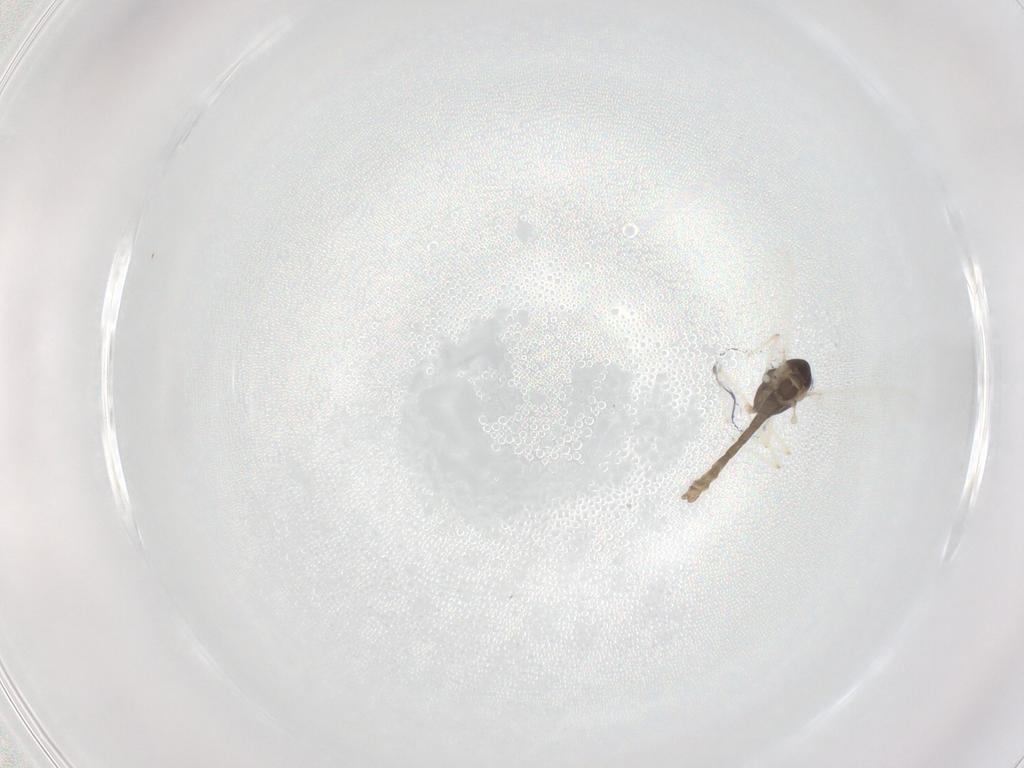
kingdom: Animalia
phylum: Arthropoda
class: Insecta
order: Diptera
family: Chironomidae
